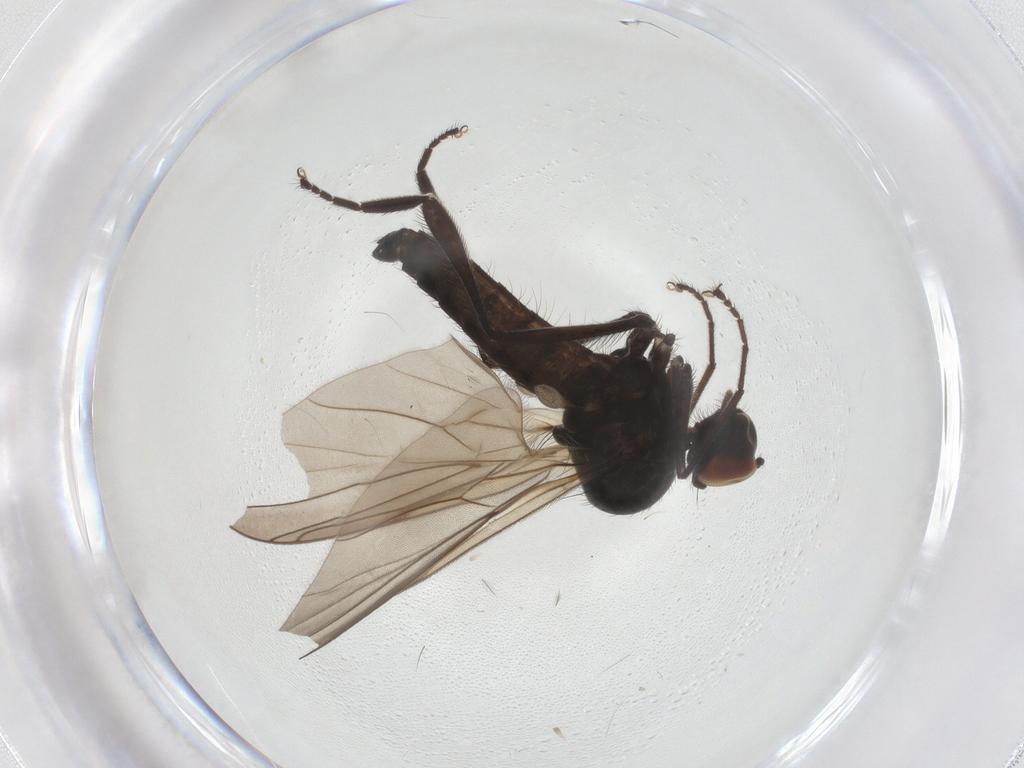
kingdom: Animalia
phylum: Arthropoda
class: Insecta
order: Diptera
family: Hybotidae
